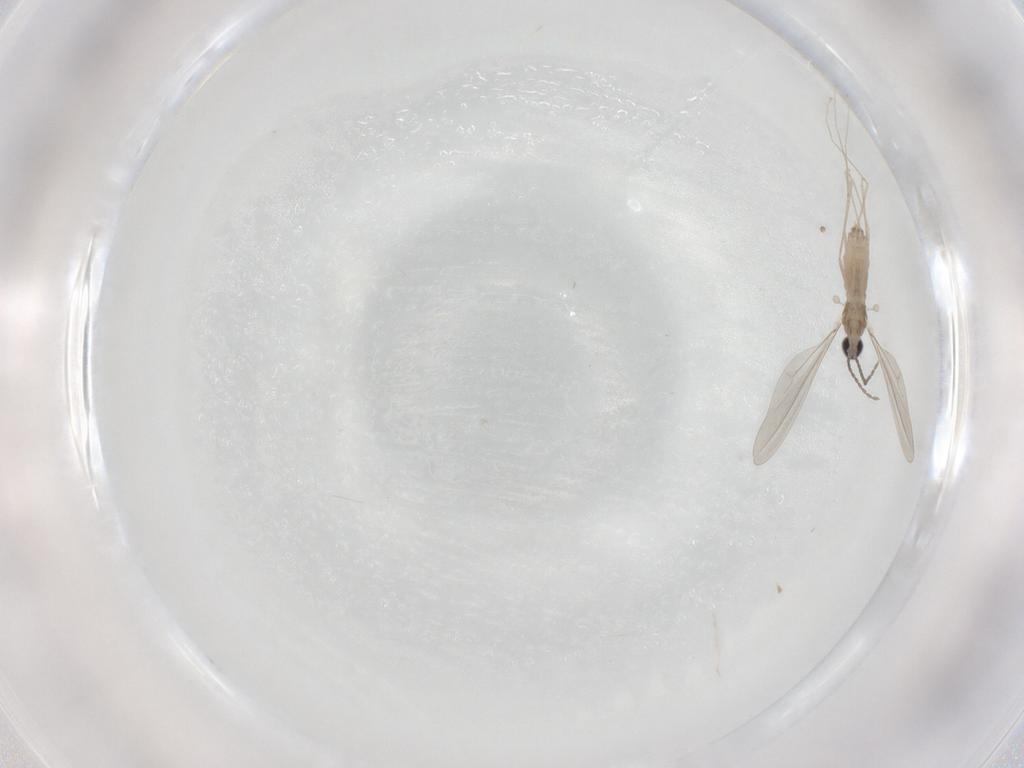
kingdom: Animalia
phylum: Arthropoda
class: Insecta
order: Diptera
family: Cecidomyiidae
